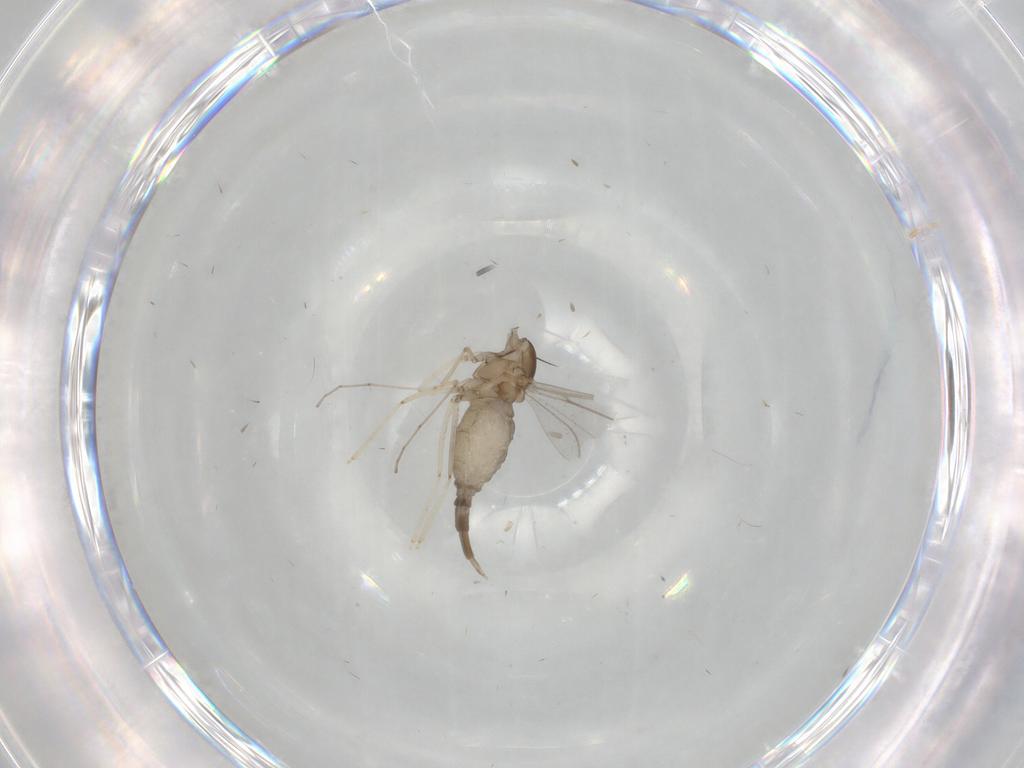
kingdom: Animalia
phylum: Arthropoda
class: Insecta
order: Diptera
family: Cecidomyiidae
